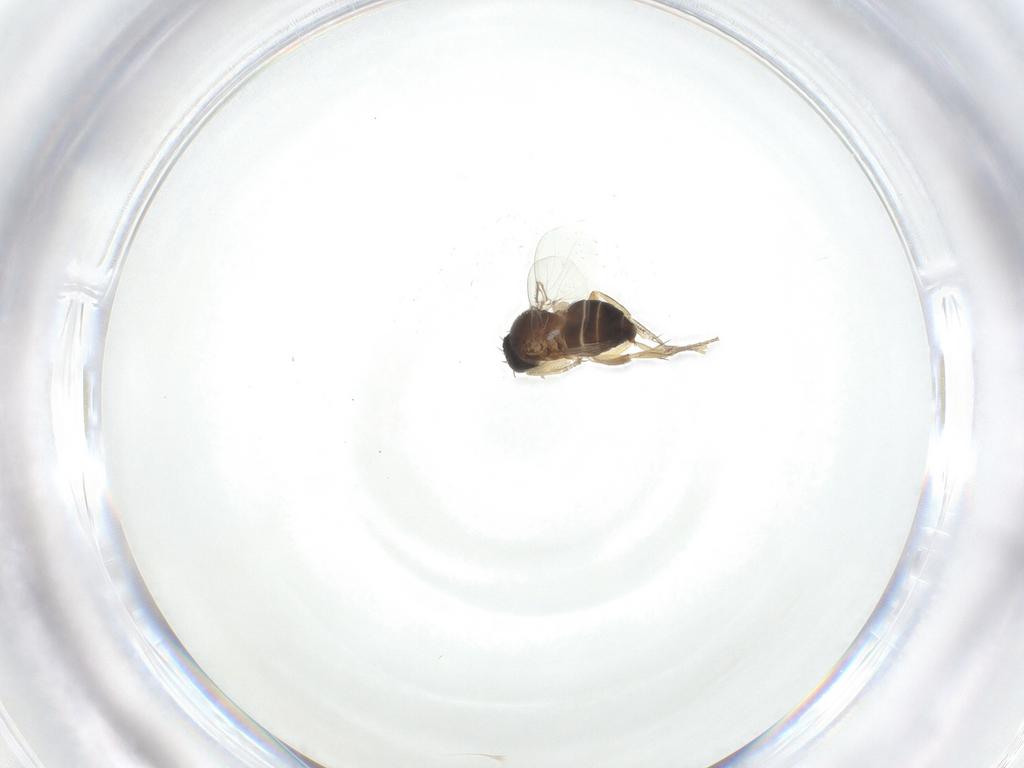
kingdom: Animalia
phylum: Arthropoda
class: Insecta
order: Diptera
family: Phoridae
